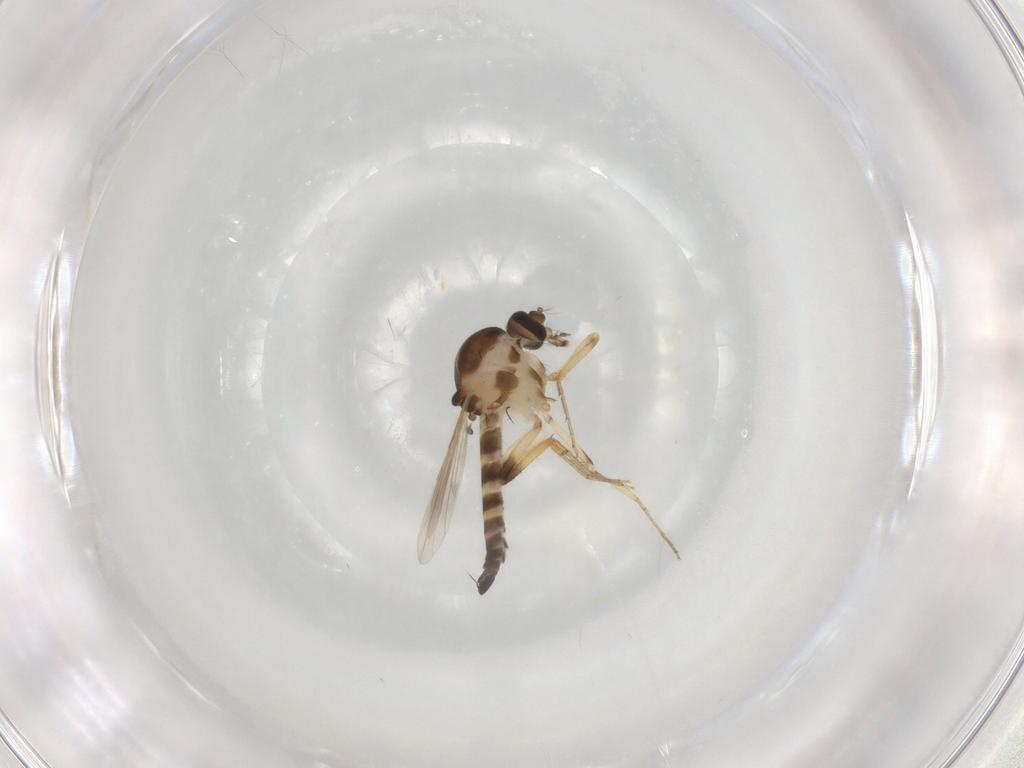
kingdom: Animalia
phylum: Arthropoda
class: Insecta
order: Diptera
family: Ceratopogonidae
